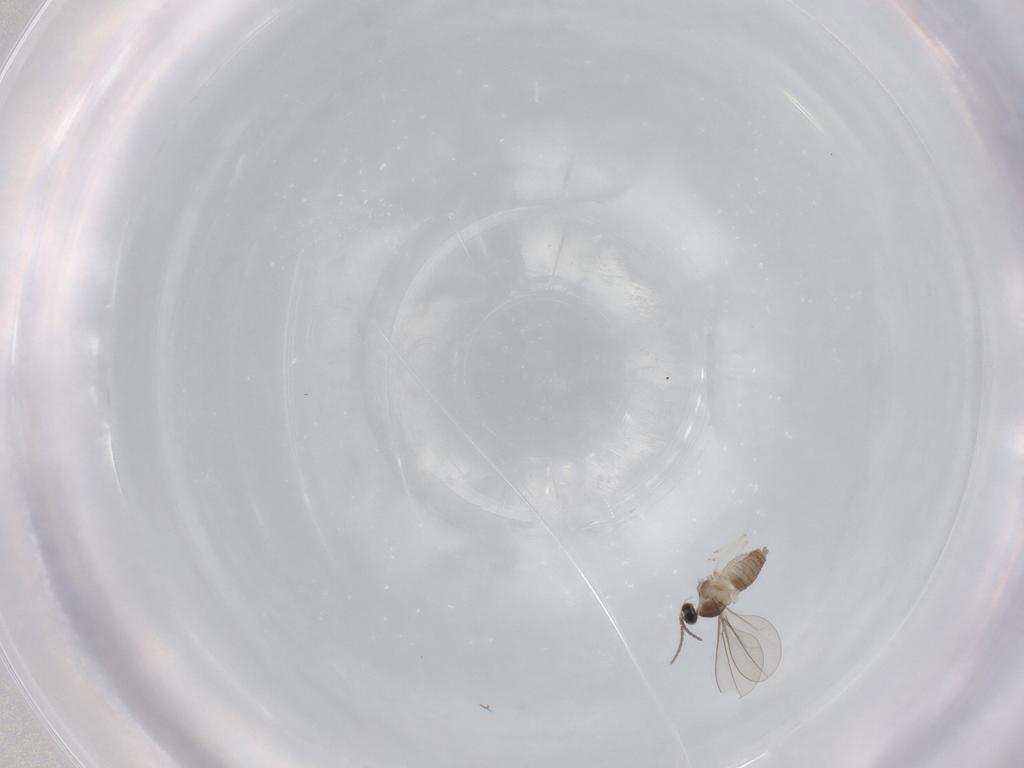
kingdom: Animalia
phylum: Arthropoda
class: Insecta
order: Diptera
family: Cecidomyiidae
